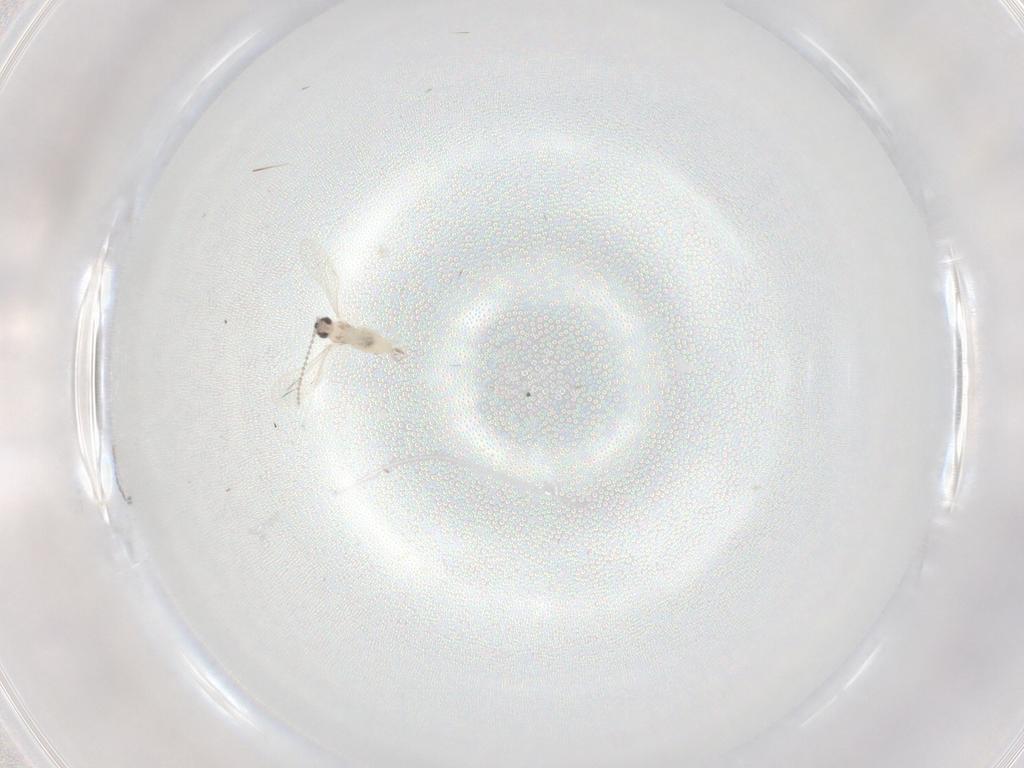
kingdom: Animalia
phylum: Arthropoda
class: Insecta
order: Diptera
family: Ceratopogonidae
